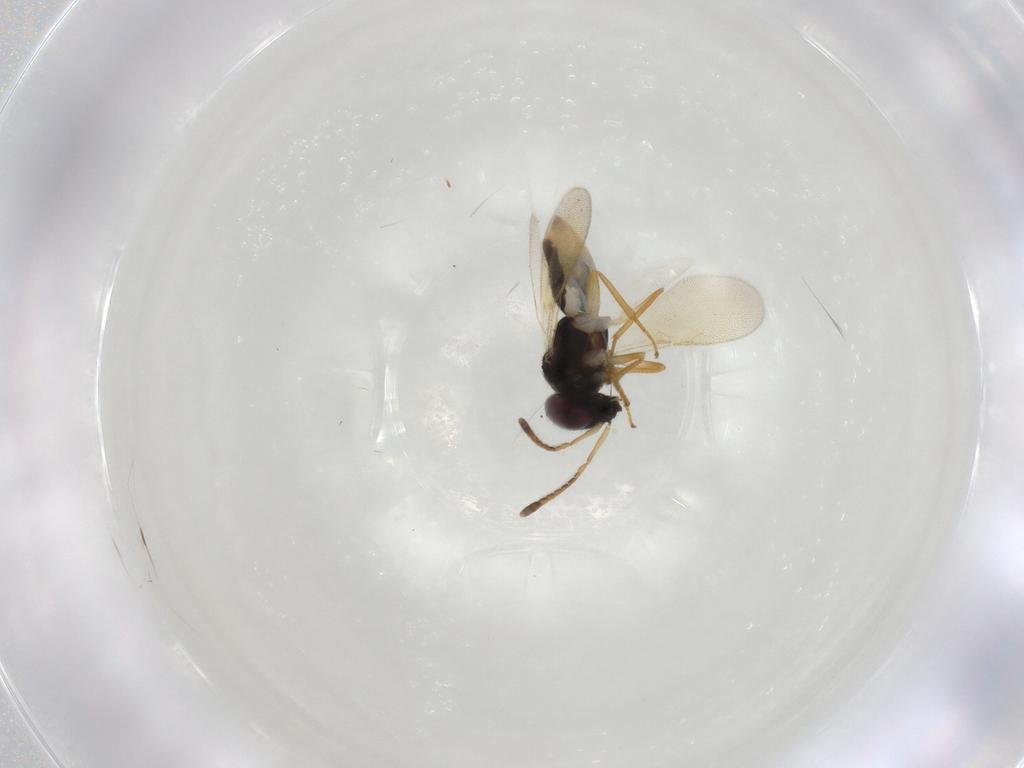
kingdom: Animalia
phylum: Arthropoda
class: Insecta
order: Hymenoptera
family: Encyrtidae
